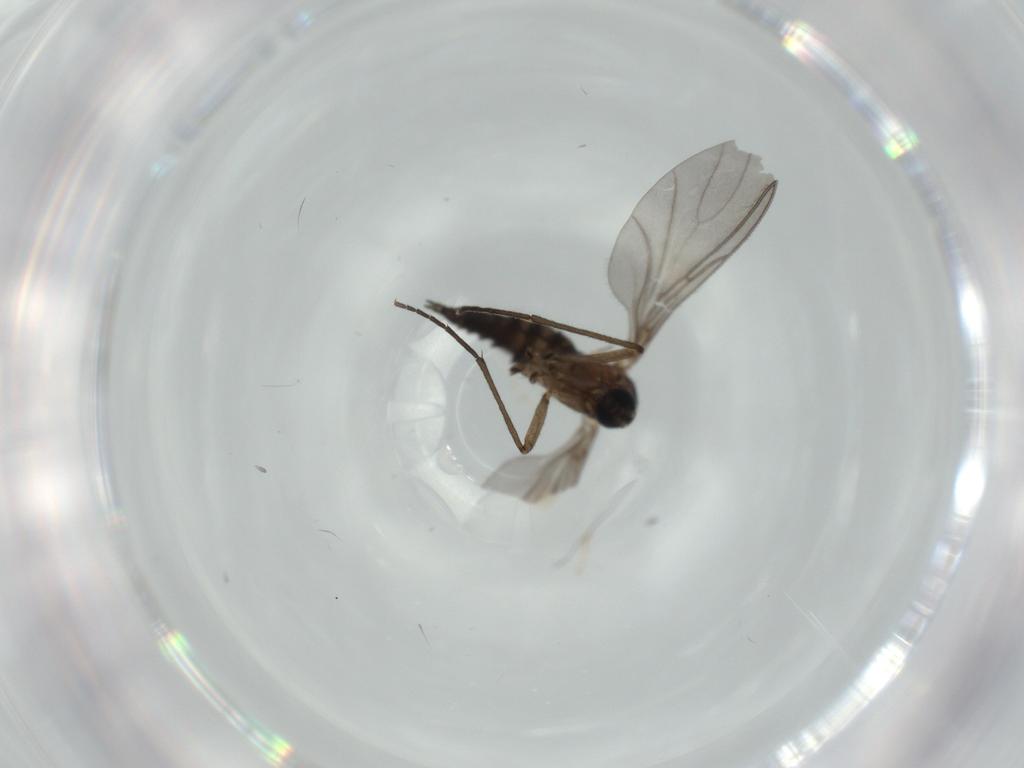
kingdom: Animalia
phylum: Arthropoda
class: Insecta
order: Diptera
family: Sciaridae
